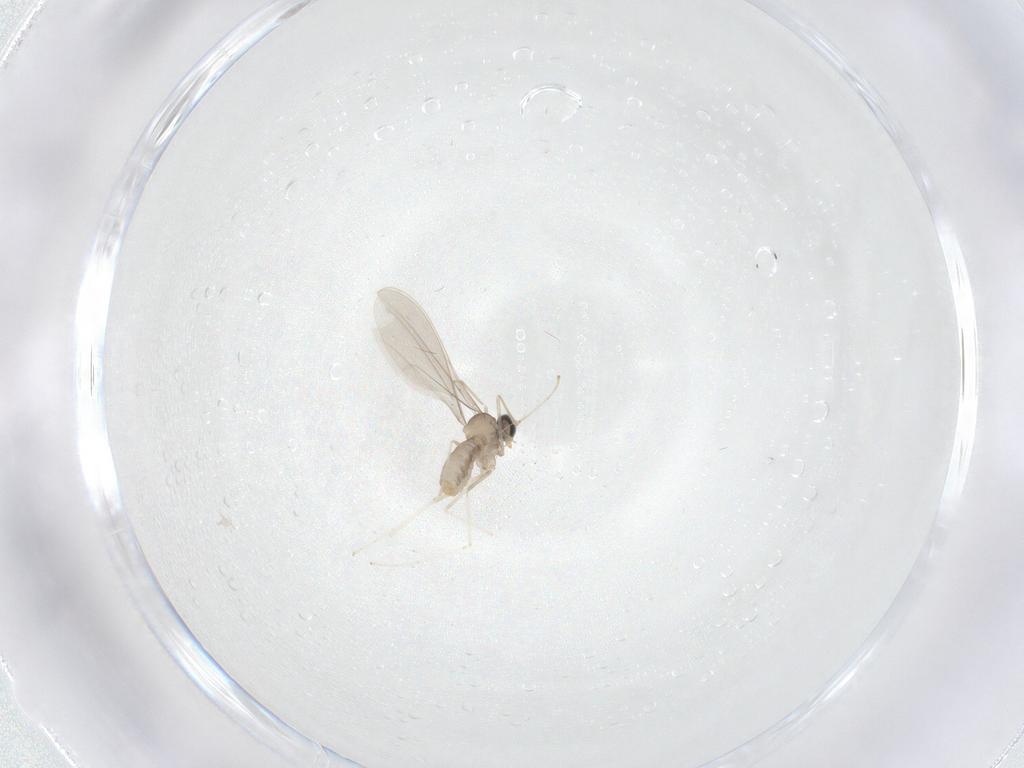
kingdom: Animalia
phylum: Arthropoda
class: Insecta
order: Diptera
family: Cecidomyiidae
